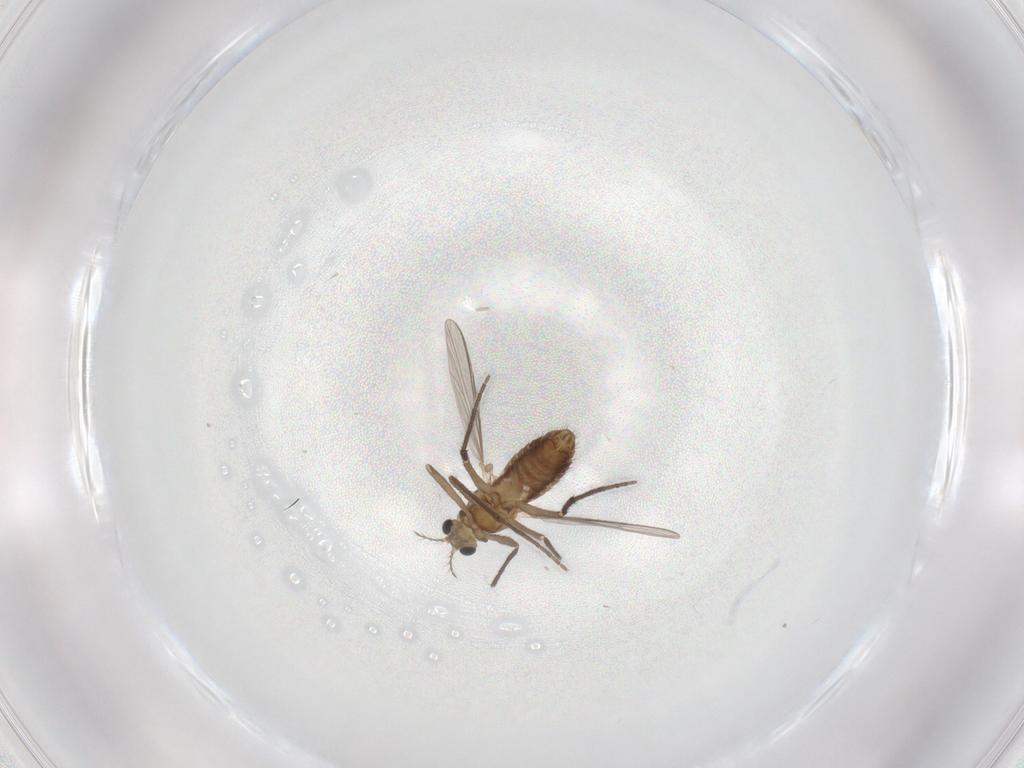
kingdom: Animalia
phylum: Arthropoda
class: Insecta
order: Diptera
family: Chironomidae
